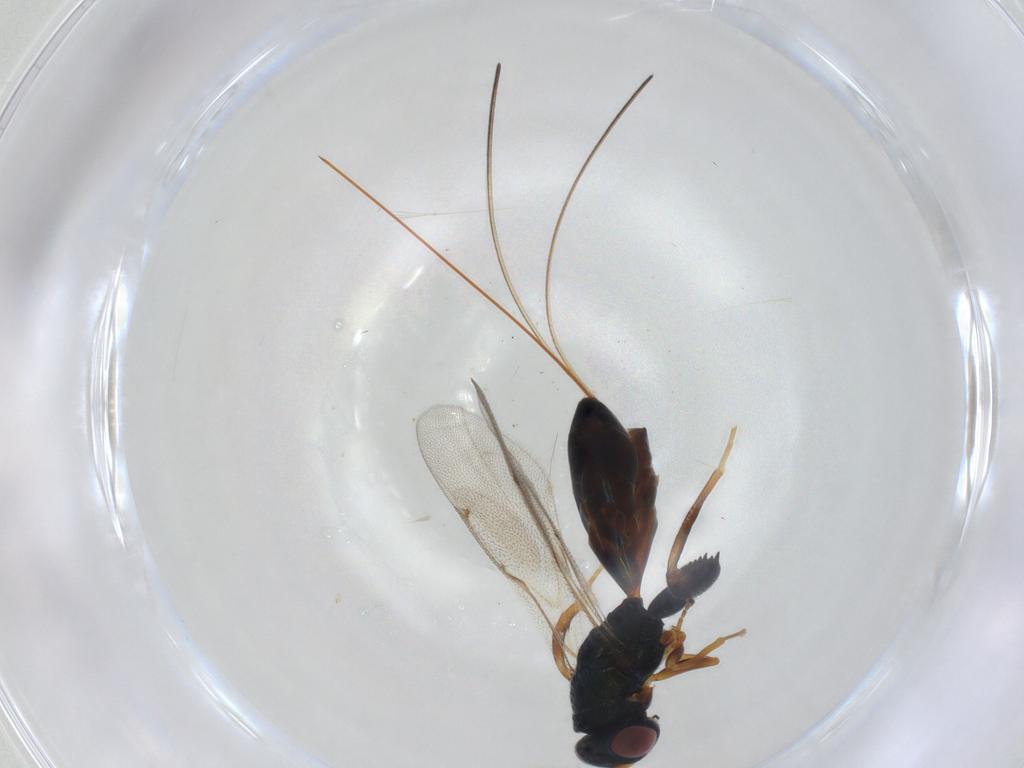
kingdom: Animalia
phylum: Arthropoda
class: Insecta
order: Hymenoptera
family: Torymidae
